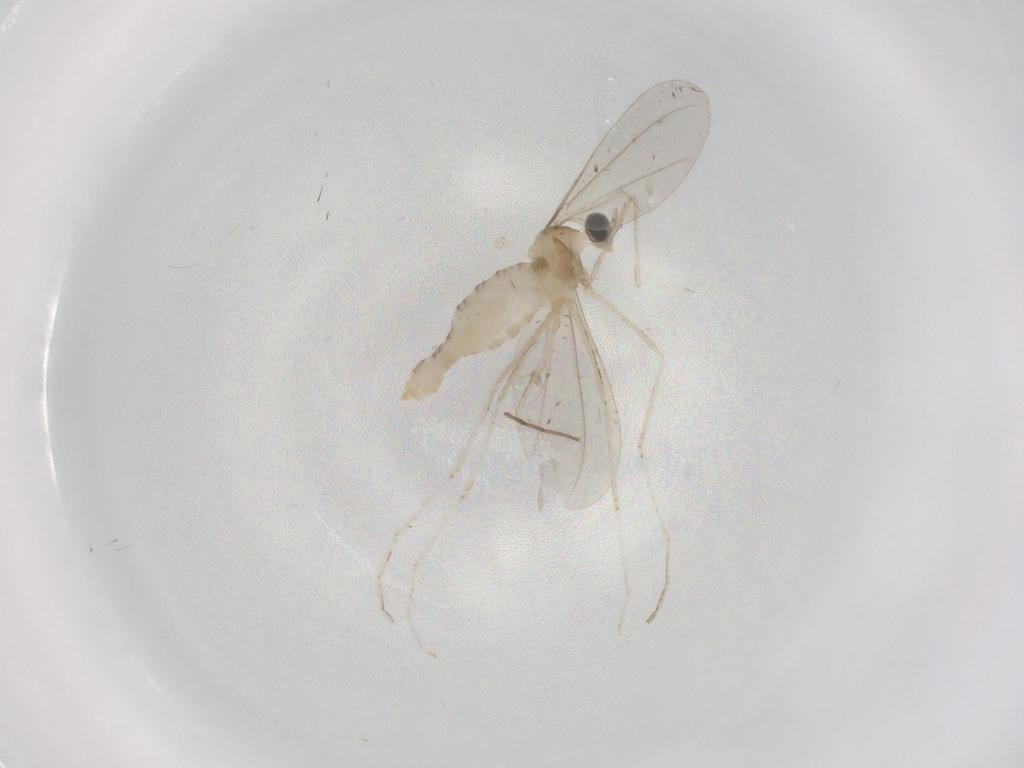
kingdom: Animalia
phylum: Arthropoda
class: Insecta
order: Diptera
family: Cecidomyiidae
